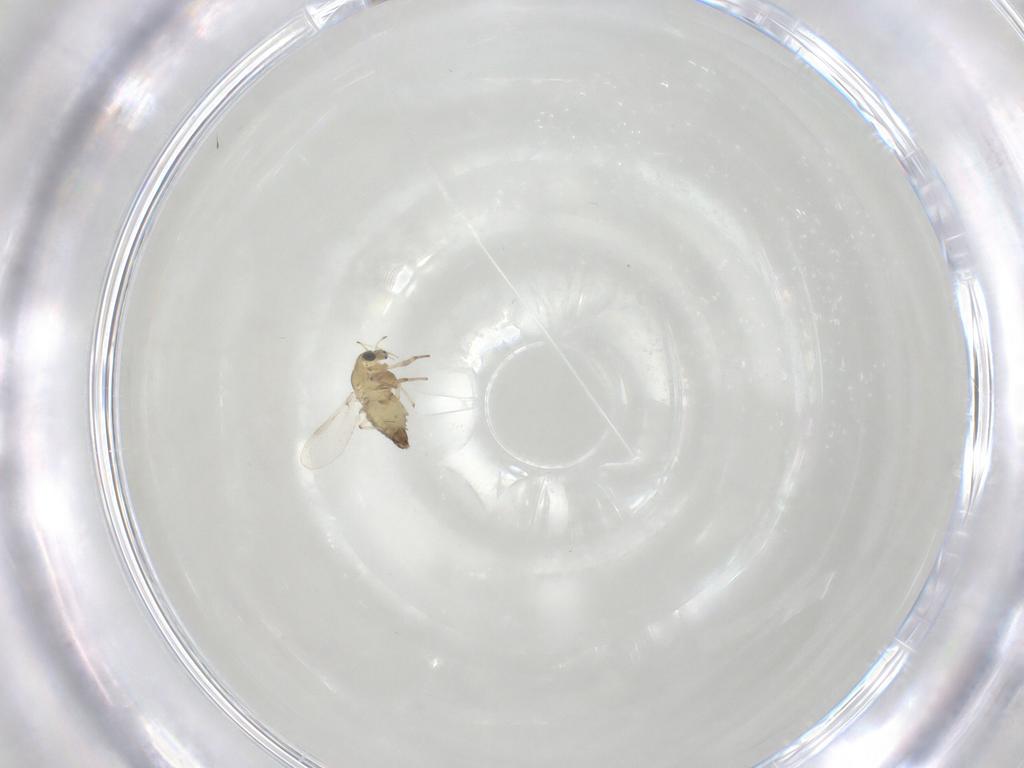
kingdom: Animalia
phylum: Arthropoda
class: Insecta
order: Diptera
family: Chironomidae
